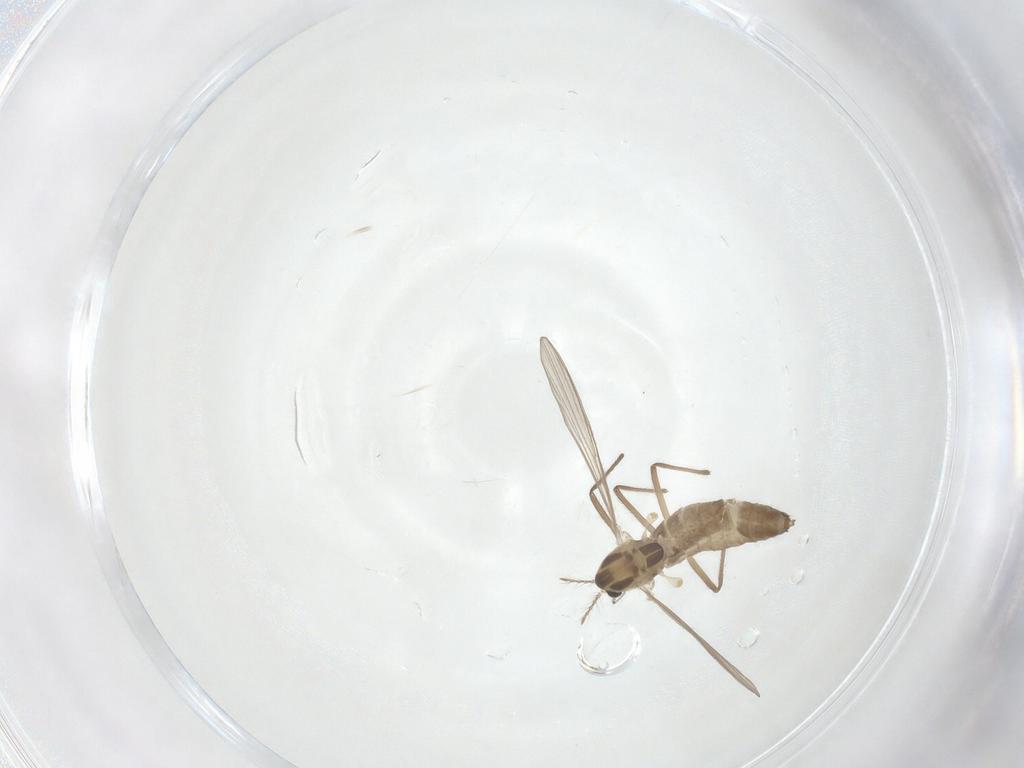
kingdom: Animalia
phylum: Arthropoda
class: Insecta
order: Diptera
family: Chironomidae
